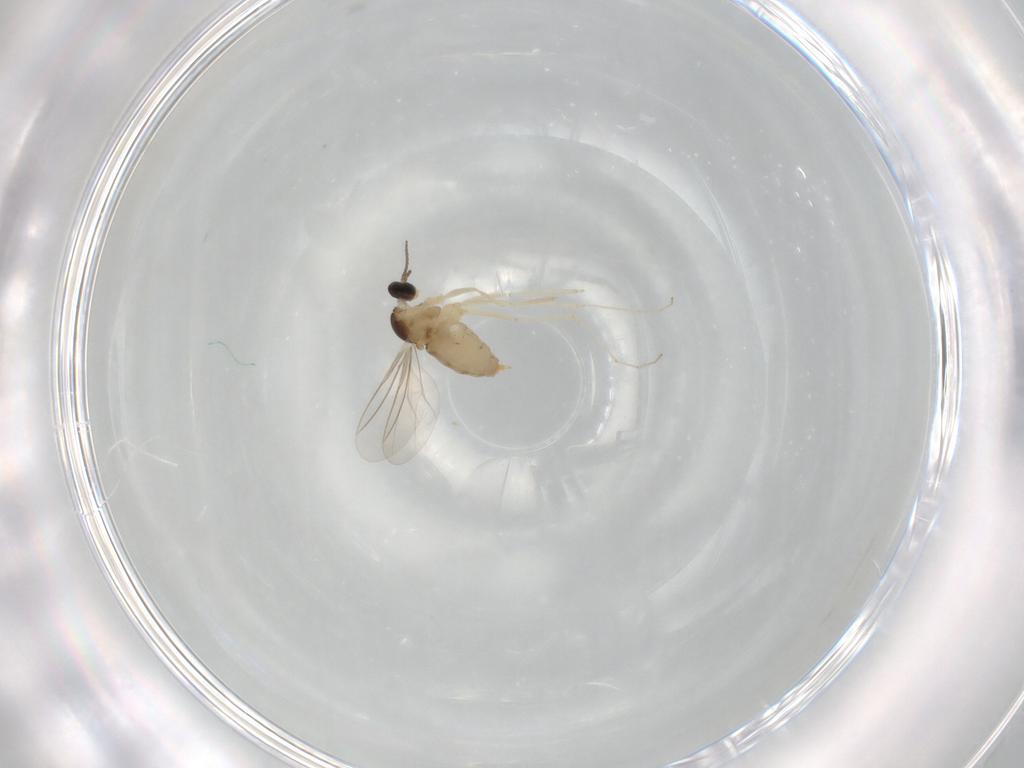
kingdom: Animalia
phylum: Arthropoda
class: Insecta
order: Diptera
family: Cecidomyiidae
